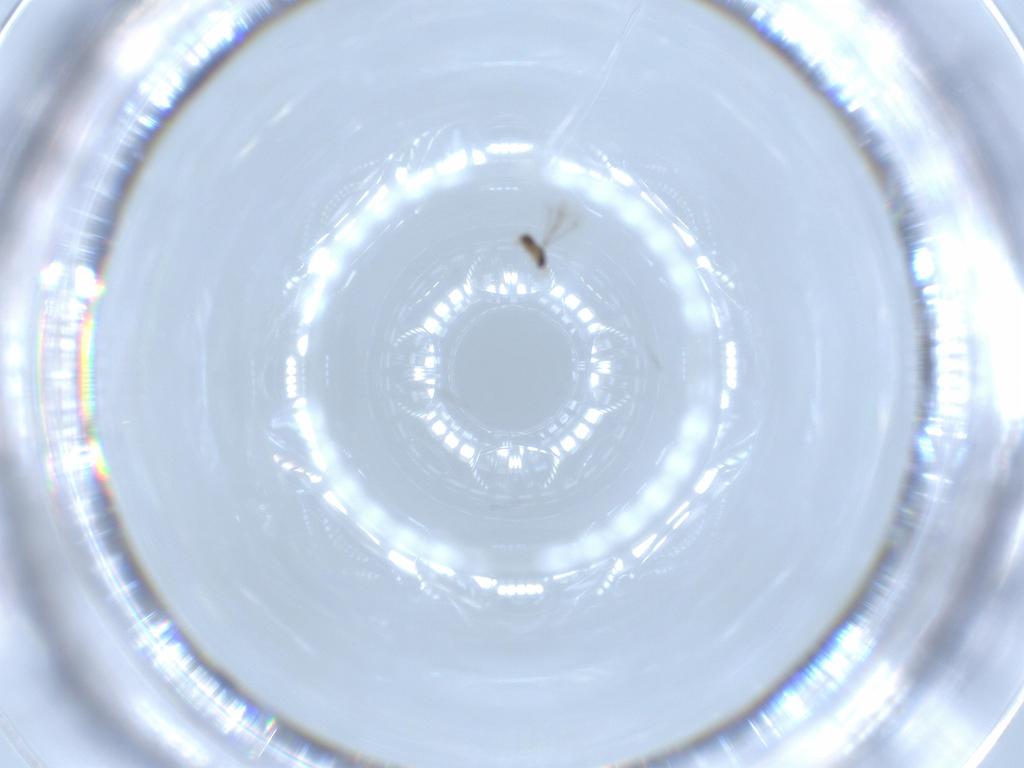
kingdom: Animalia
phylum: Arthropoda
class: Insecta
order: Hymenoptera
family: Mymaridae
